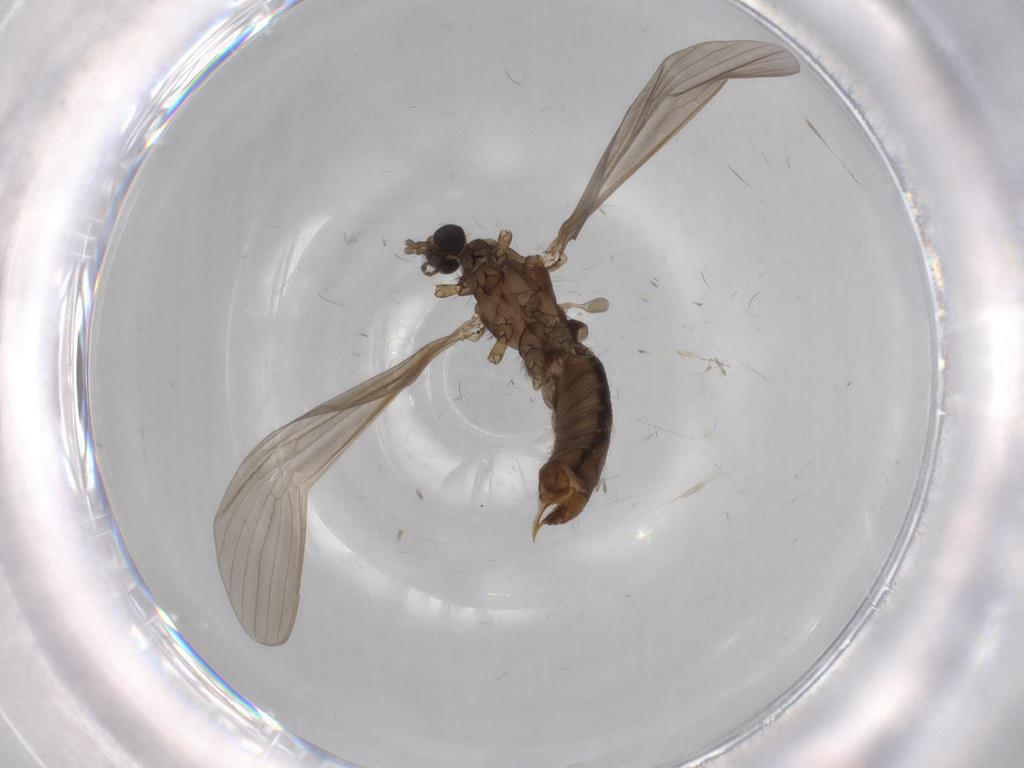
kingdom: Animalia
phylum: Arthropoda
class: Insecta
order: Diptera
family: Limoniidae
